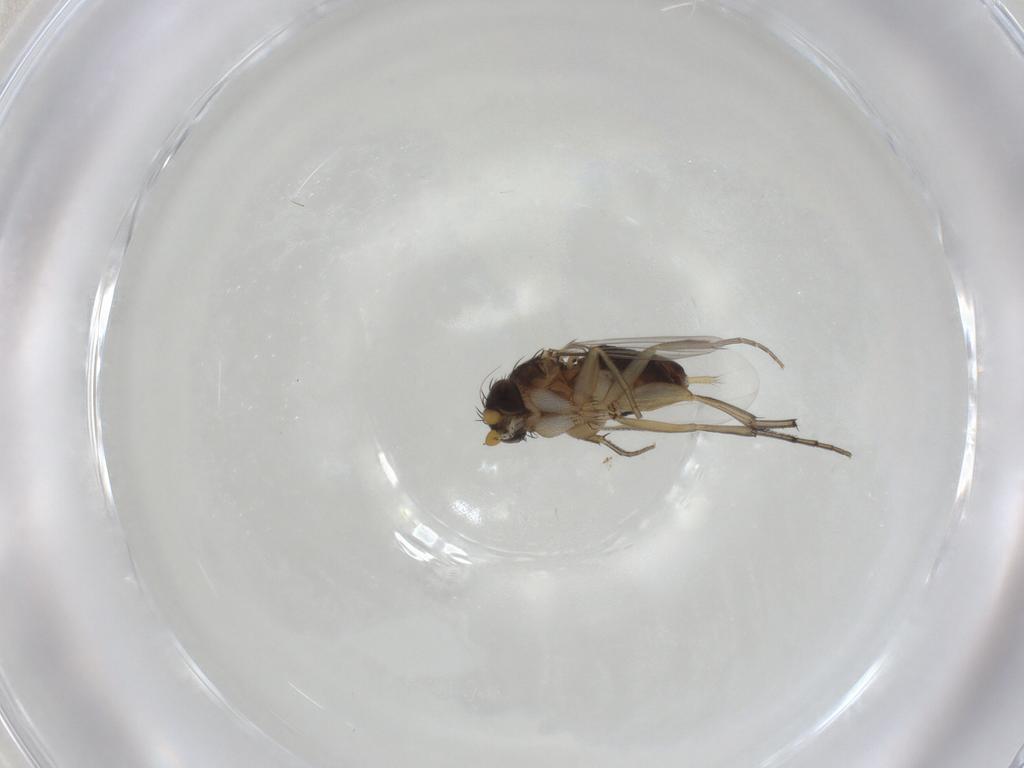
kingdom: Animalia
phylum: Arthropoda
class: Insecta
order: Diptera
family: Phoridae
